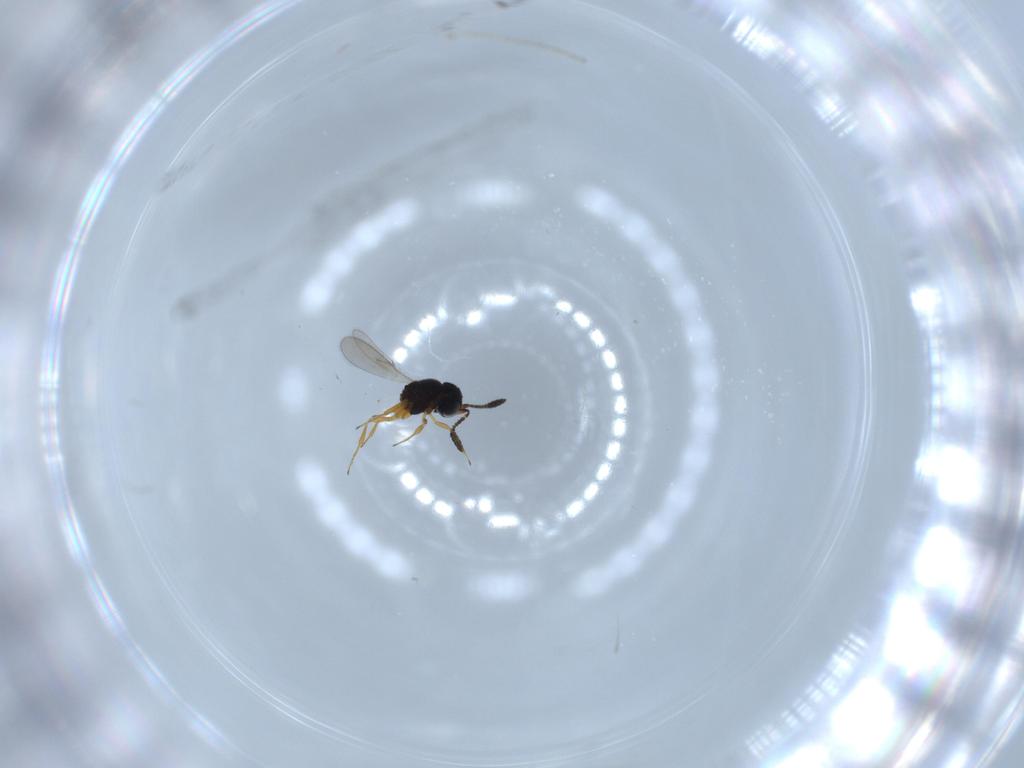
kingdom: Animalia
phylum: Arthropoda
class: Insecta
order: Hymenoptera
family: Scelionidae
